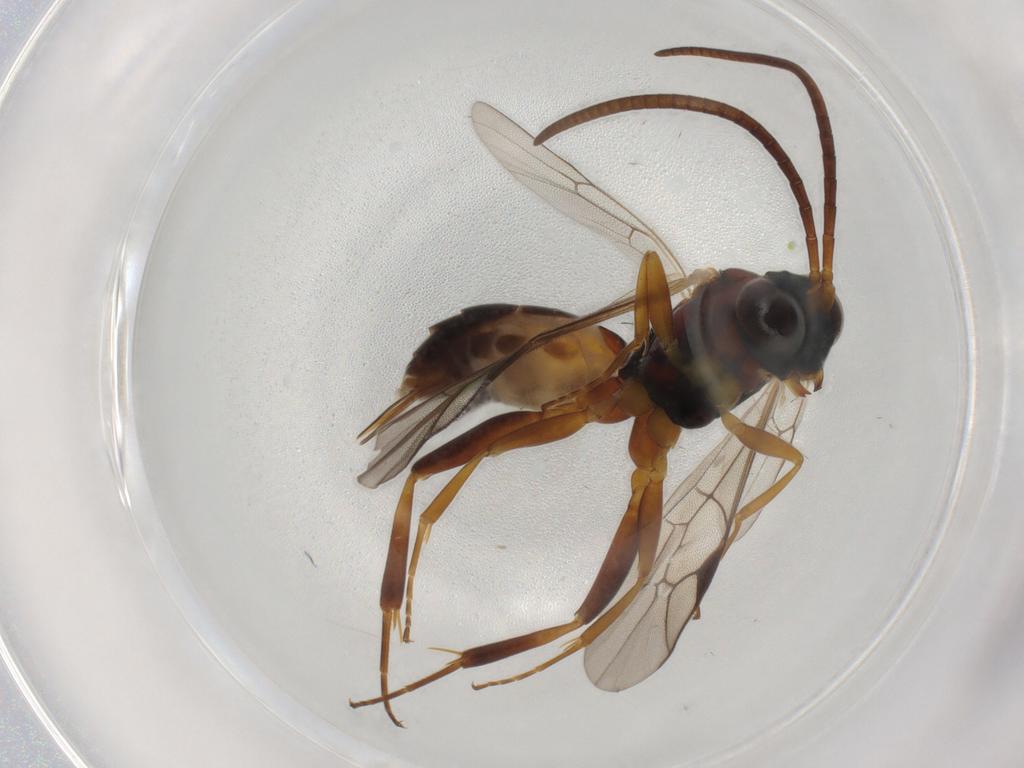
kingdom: Animalia
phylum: Arthropoda
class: Insecta
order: Hymenoptera
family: Ichneumonidae
